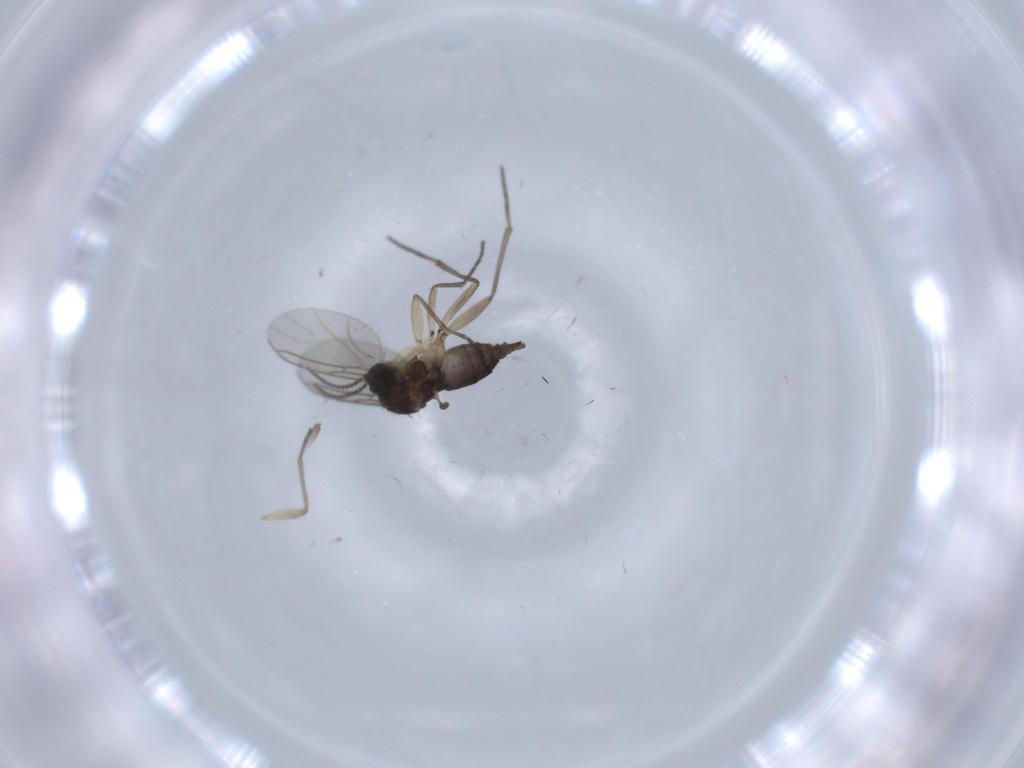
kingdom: Animalia
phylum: Arthropoda
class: Insecta
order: Diptera
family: Sciaridae
